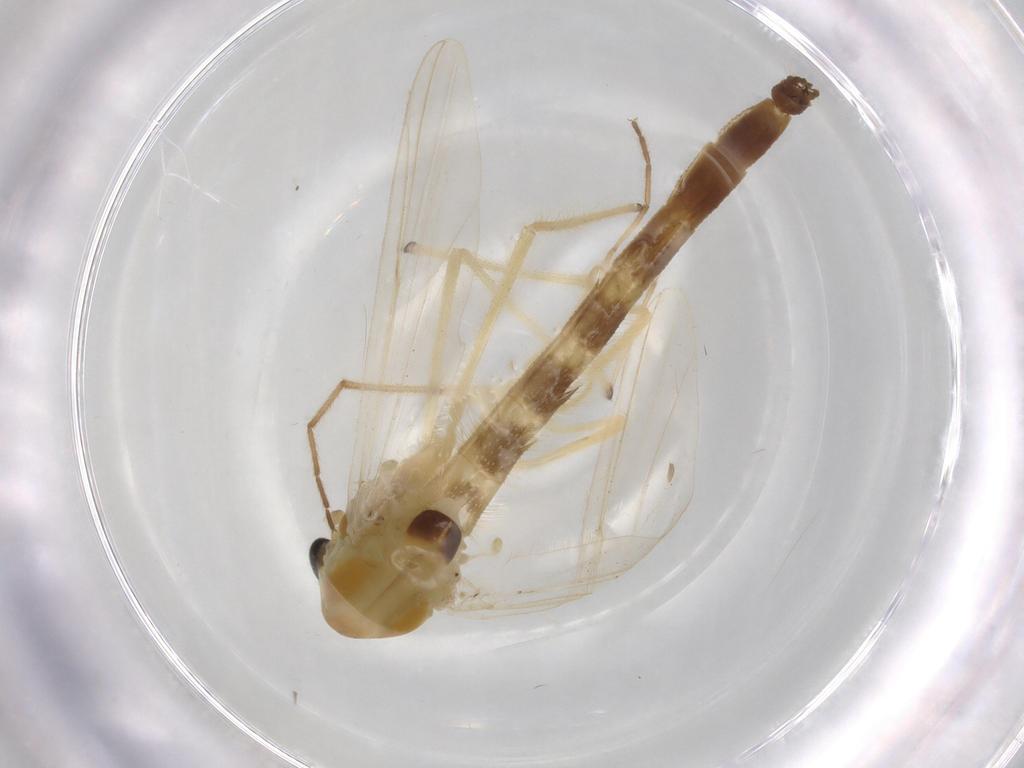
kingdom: Animalia
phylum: Arthropoda
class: Insecta
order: Diptera
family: Chironomidae
